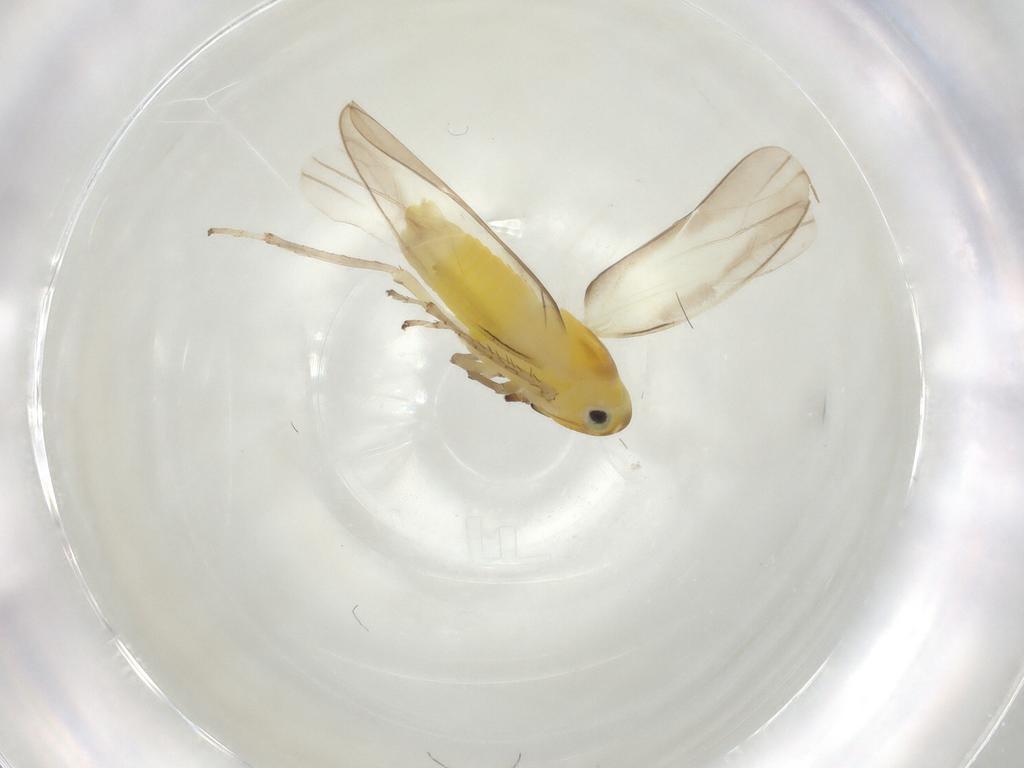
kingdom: Animalia
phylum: Arthropoda
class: Insecta
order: Hemiptera
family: Cicadellidae
